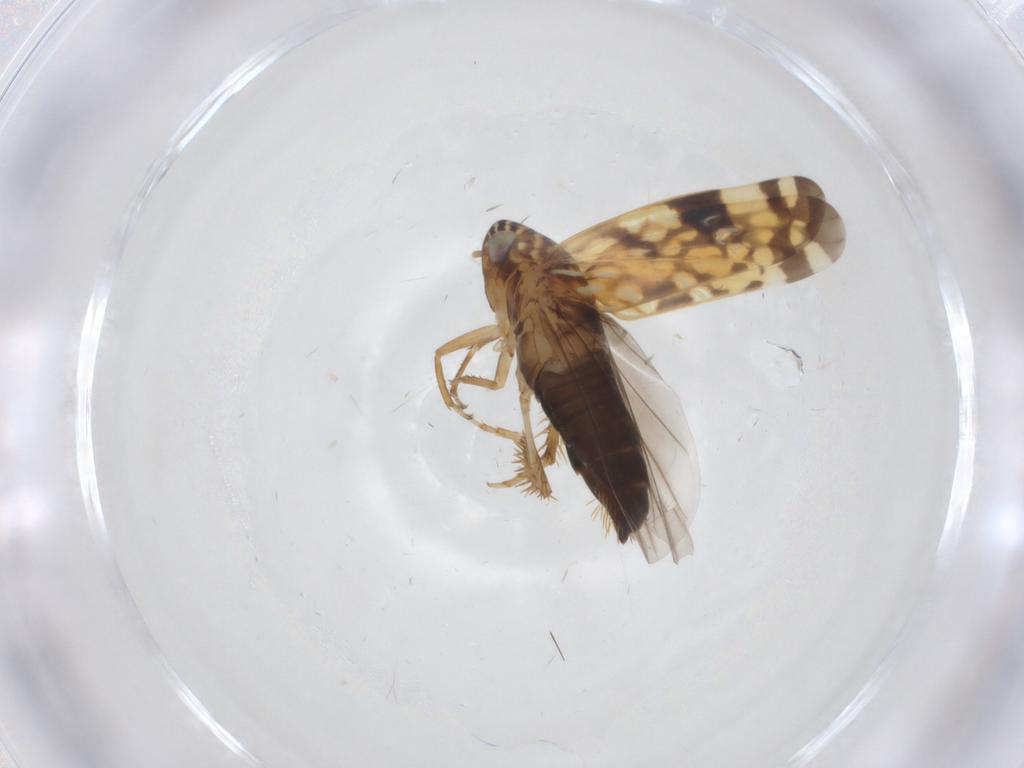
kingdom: Animalia
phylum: Arthropoda
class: Insecta
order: Hemiptera
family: Cicadellidae
